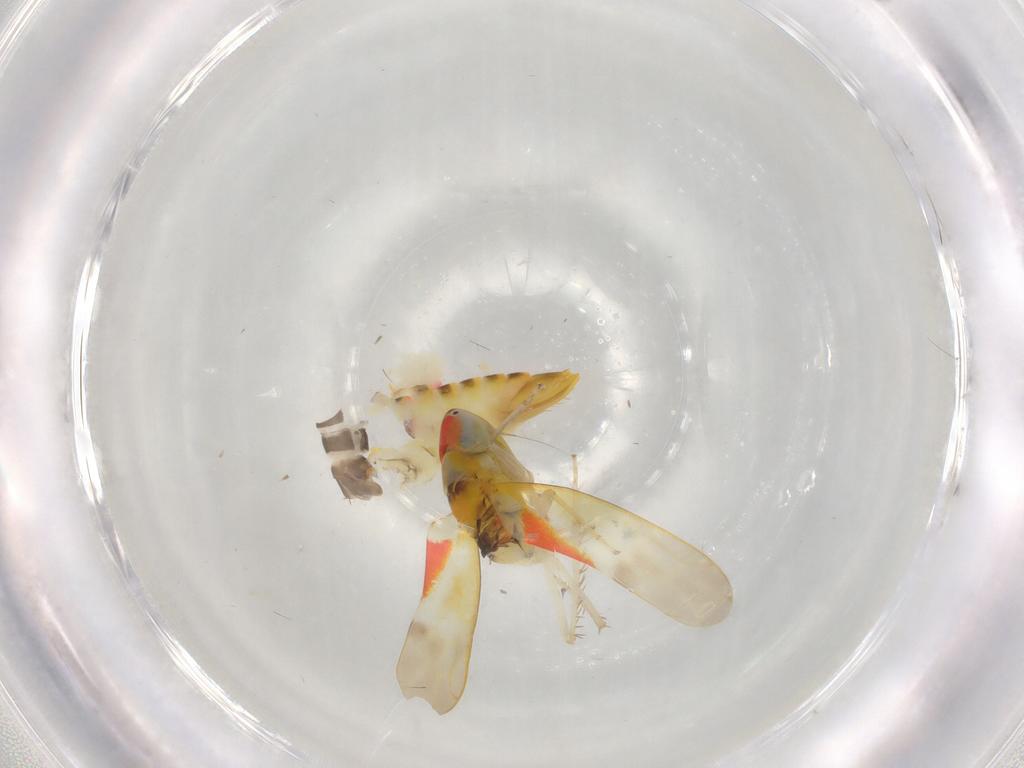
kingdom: Animalia
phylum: Arthropoda
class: Insecta
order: Hemiptera
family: Cicadellidae
